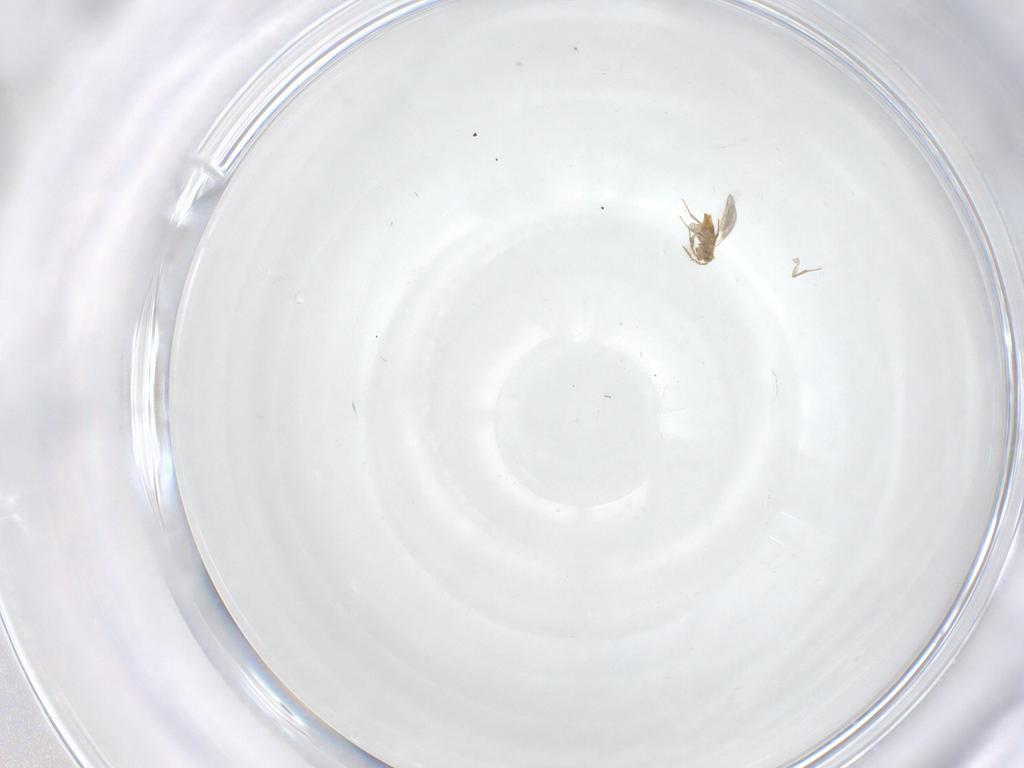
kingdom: Animalia
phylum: Arthropoda
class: Insecta
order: Hymenoptera
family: Aphelinidae
